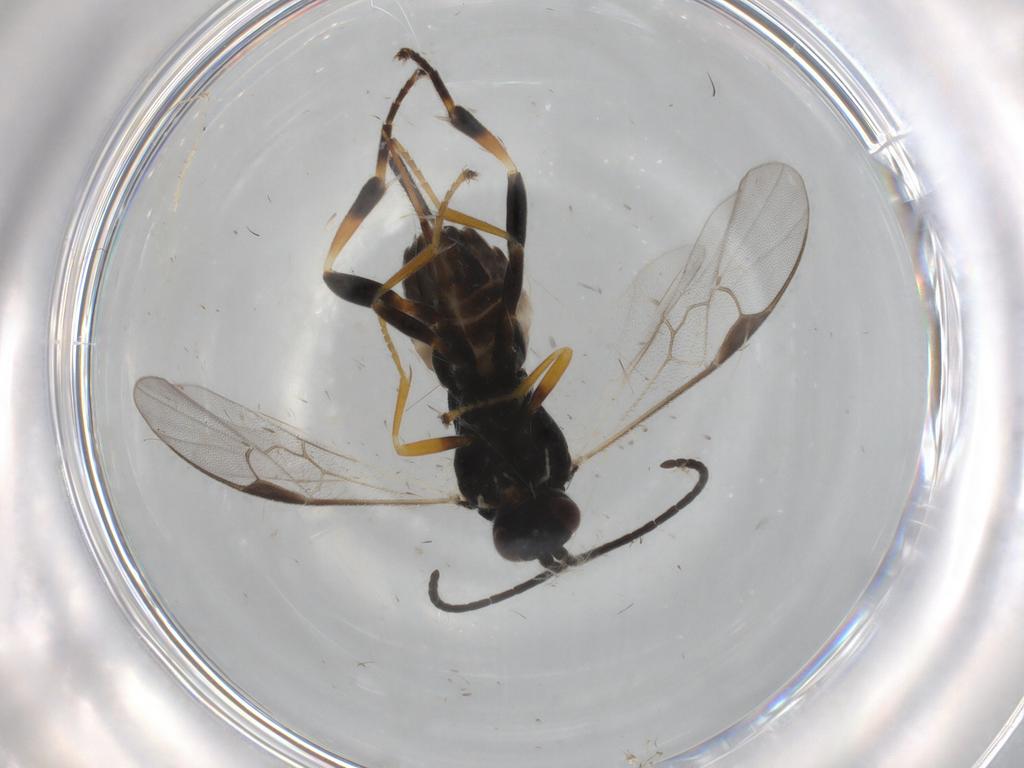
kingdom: Animalia
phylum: Arthropoda
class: Insecta
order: Hymenoptera
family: Braconidae
